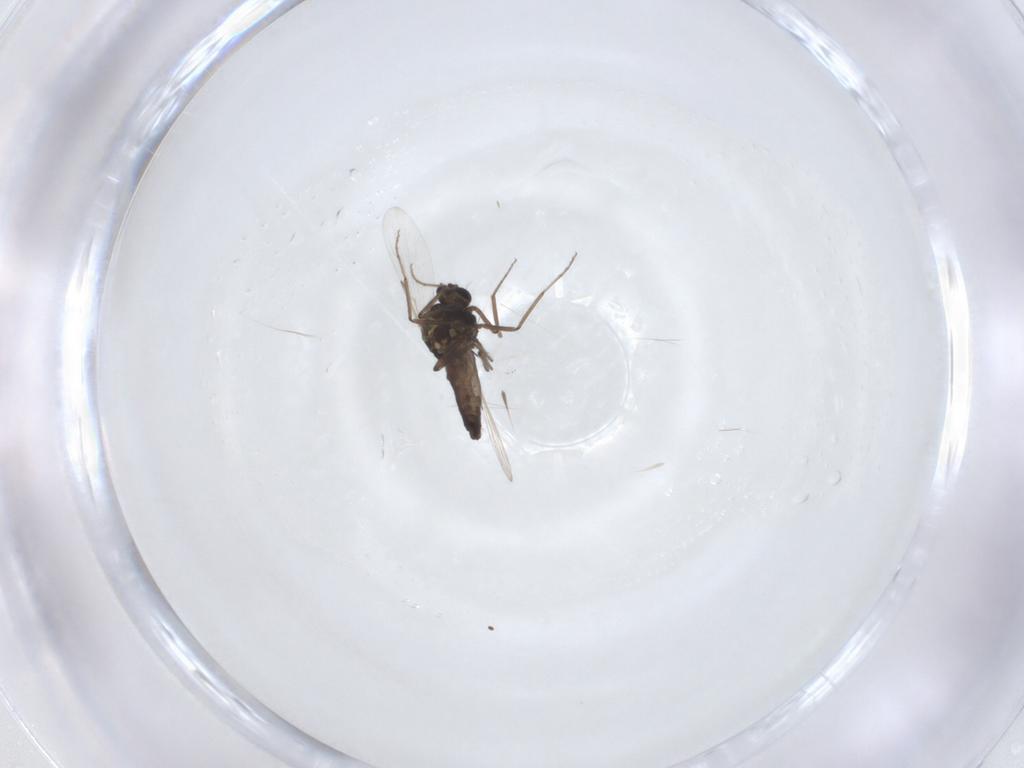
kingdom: Animalia
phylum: Arthropoda
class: Insecta
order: Diptera
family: Ceratopogonidae
